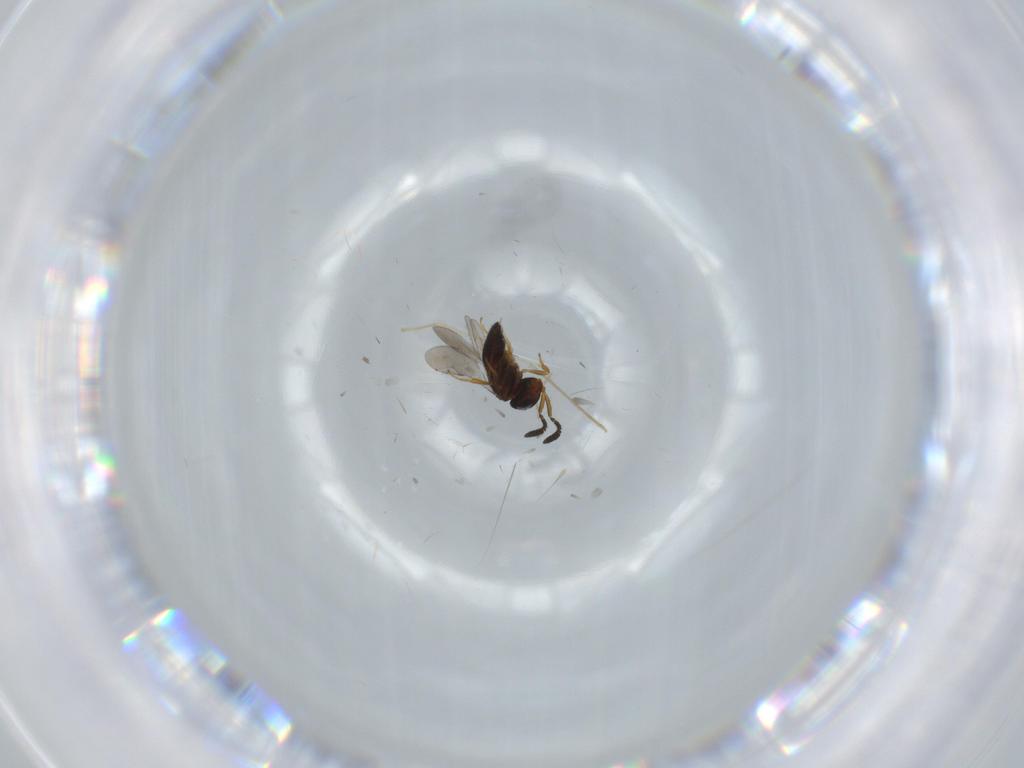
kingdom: Animalia
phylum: Arthropoda
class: Insecta
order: Hymenoptera
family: Scelionidae
